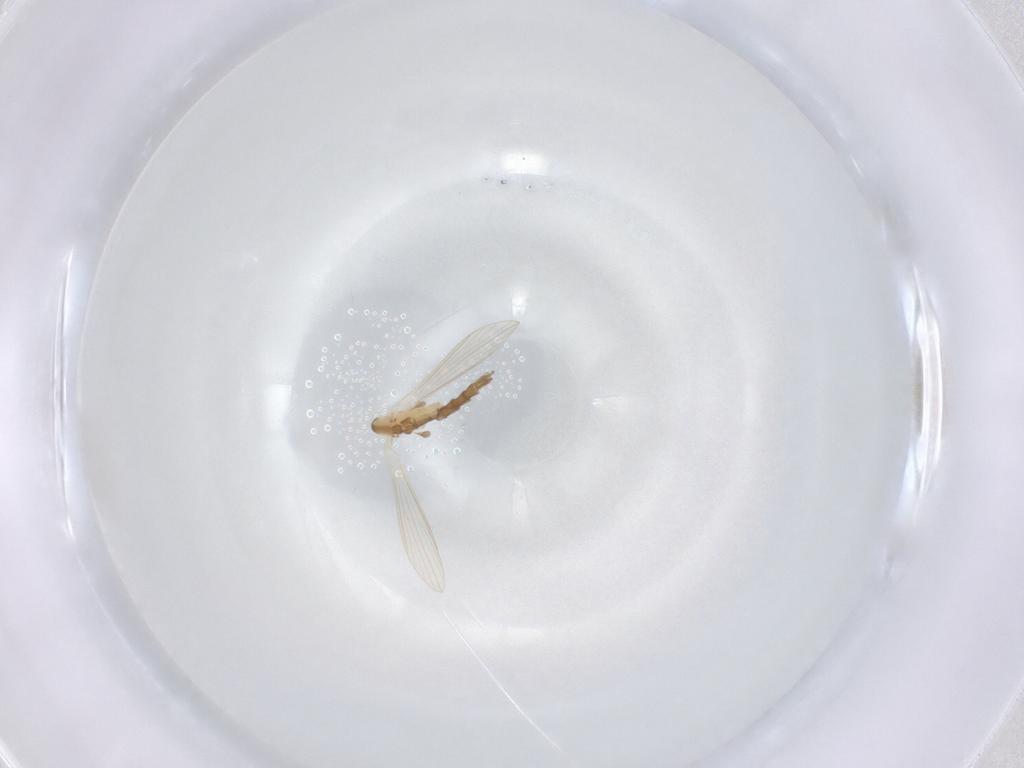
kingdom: Animalia
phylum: Arthropoda
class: Insecta
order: Diptera
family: Psychodidae
